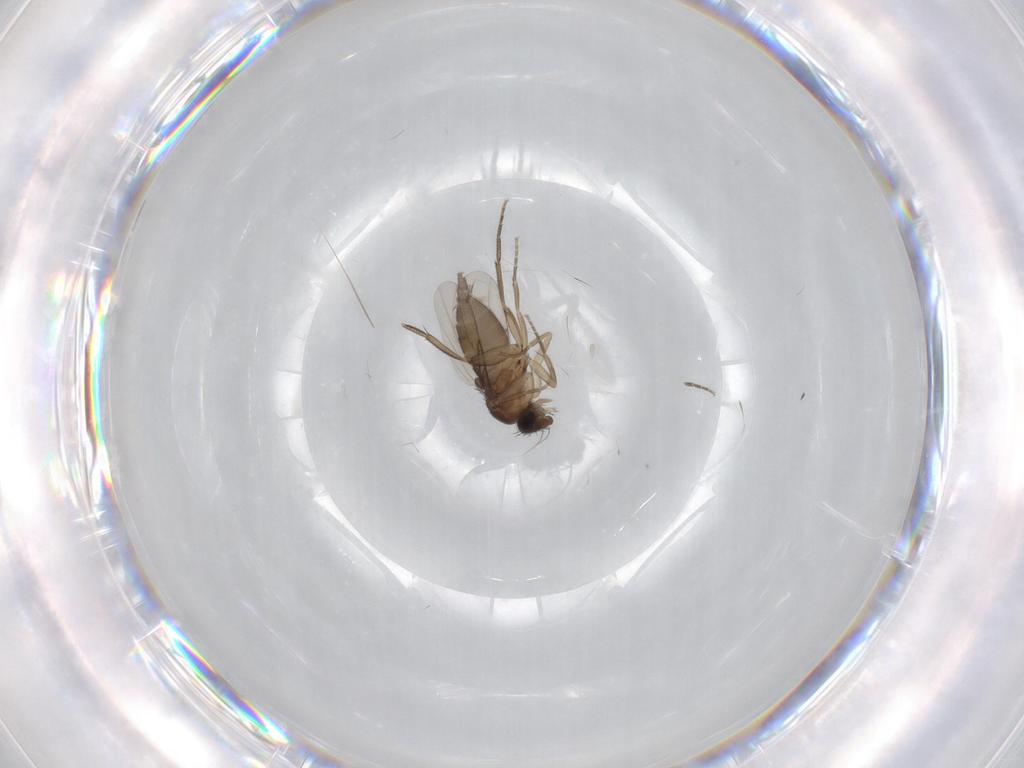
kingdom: Animalia
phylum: Arthropoda
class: Insecta
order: Diptera
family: Phoridae
